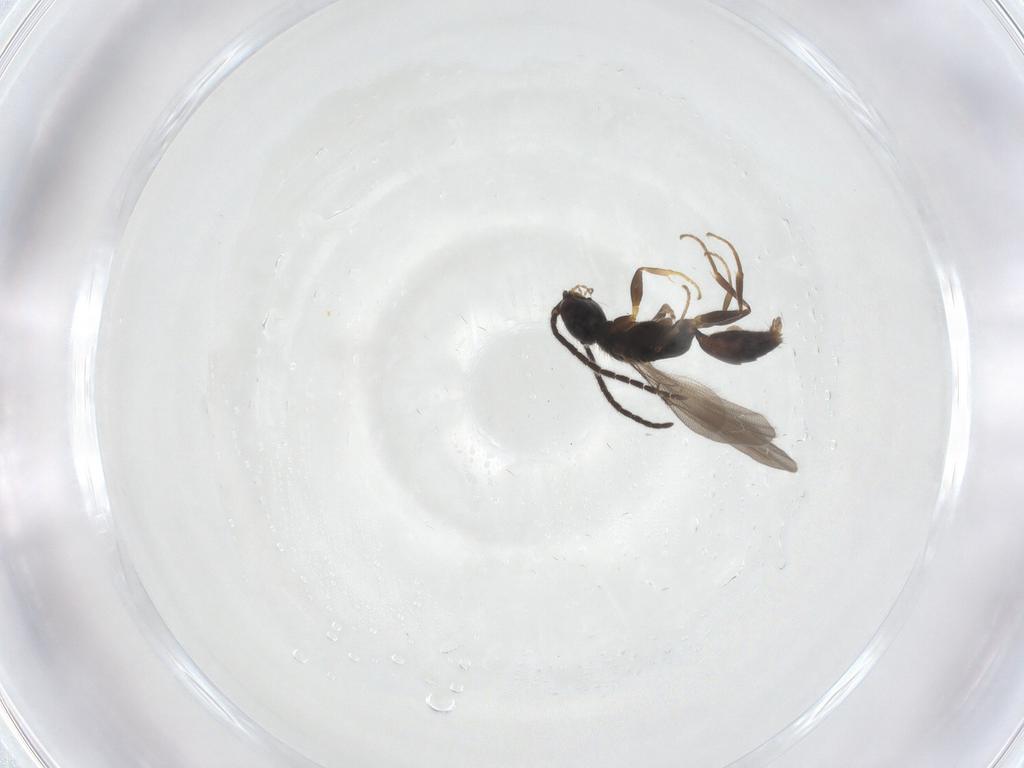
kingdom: Animalia
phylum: Arthropoda
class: Insecta
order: Hymenoptera
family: Bethylidae
